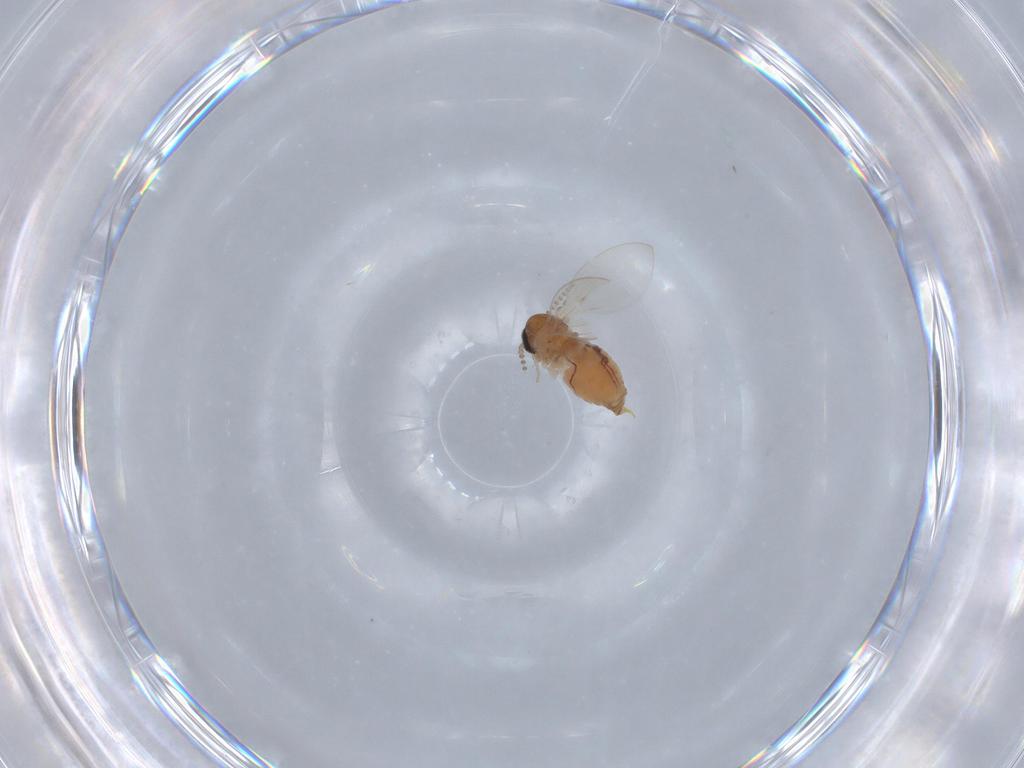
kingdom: Animalia
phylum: Arthropoda
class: Insecta
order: Diptera
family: Psychodidae
